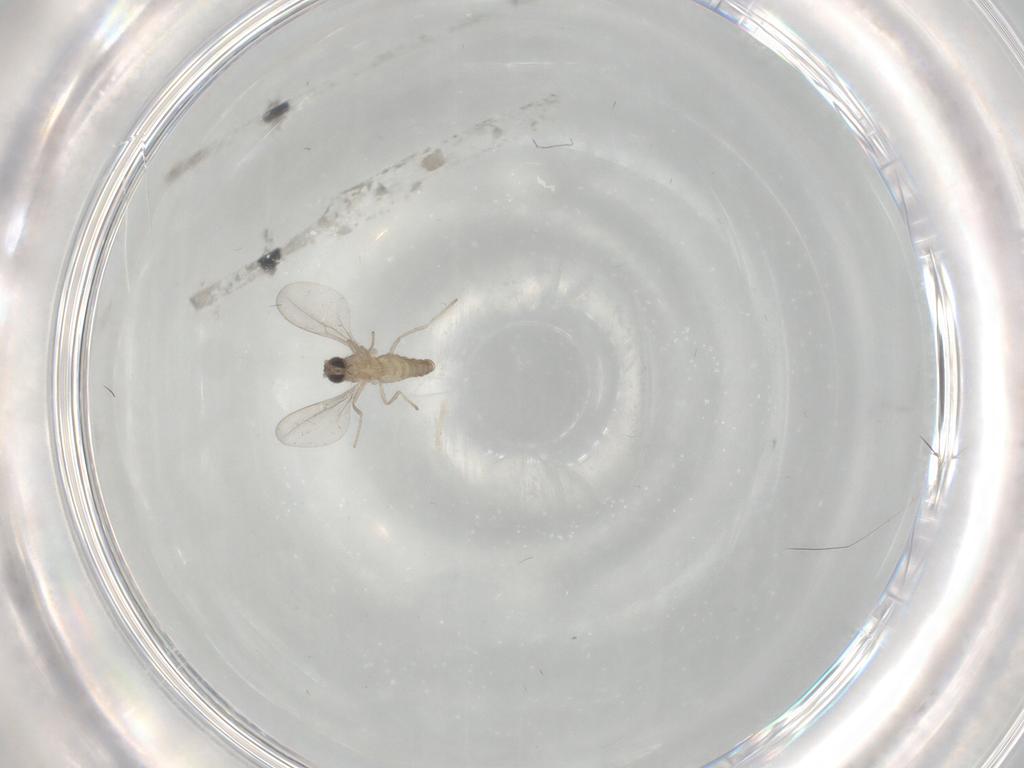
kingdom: Animalia
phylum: Arthropoda
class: Insecta
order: Diptera
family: Cecidomyiidae
